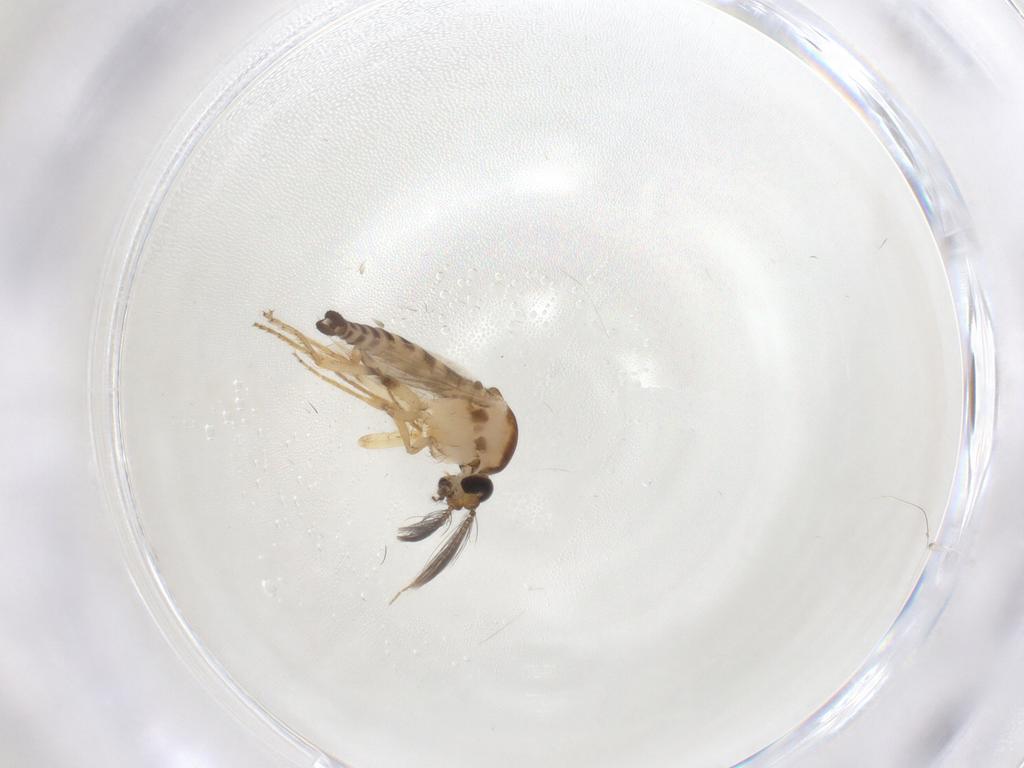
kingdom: Animalia
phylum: Arthropoda
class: Insecta
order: Diptera
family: Ceratopogonidae
